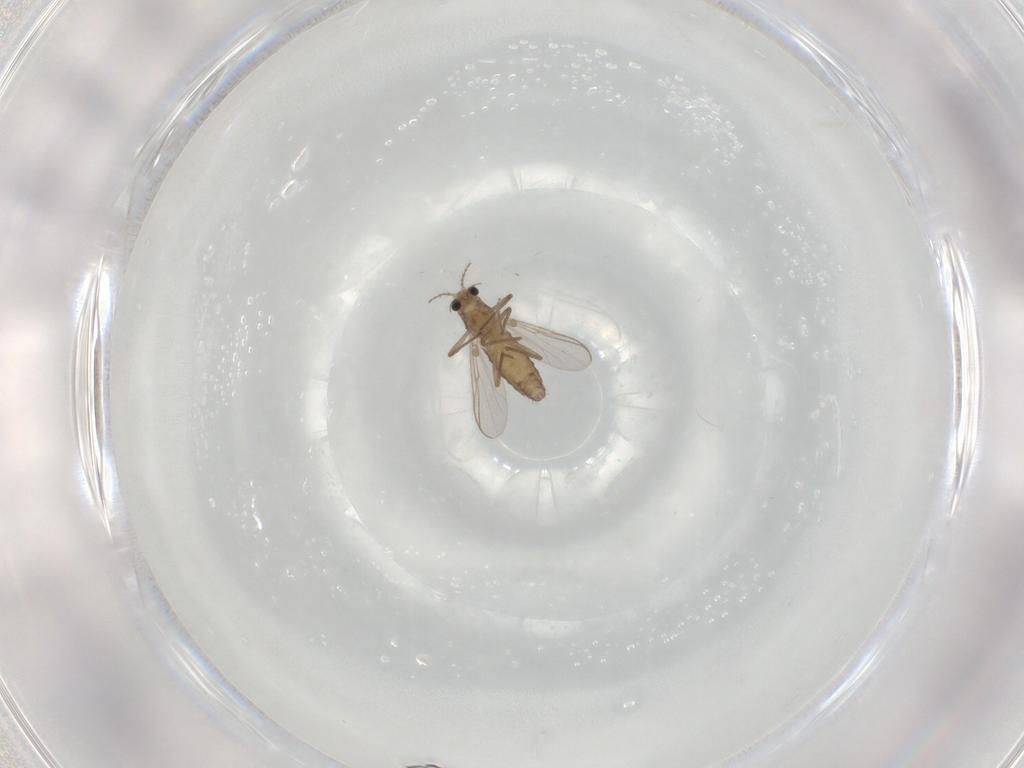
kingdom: Animalia
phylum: Arthropoda
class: Insecta
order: Diptera
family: Chironomidae
